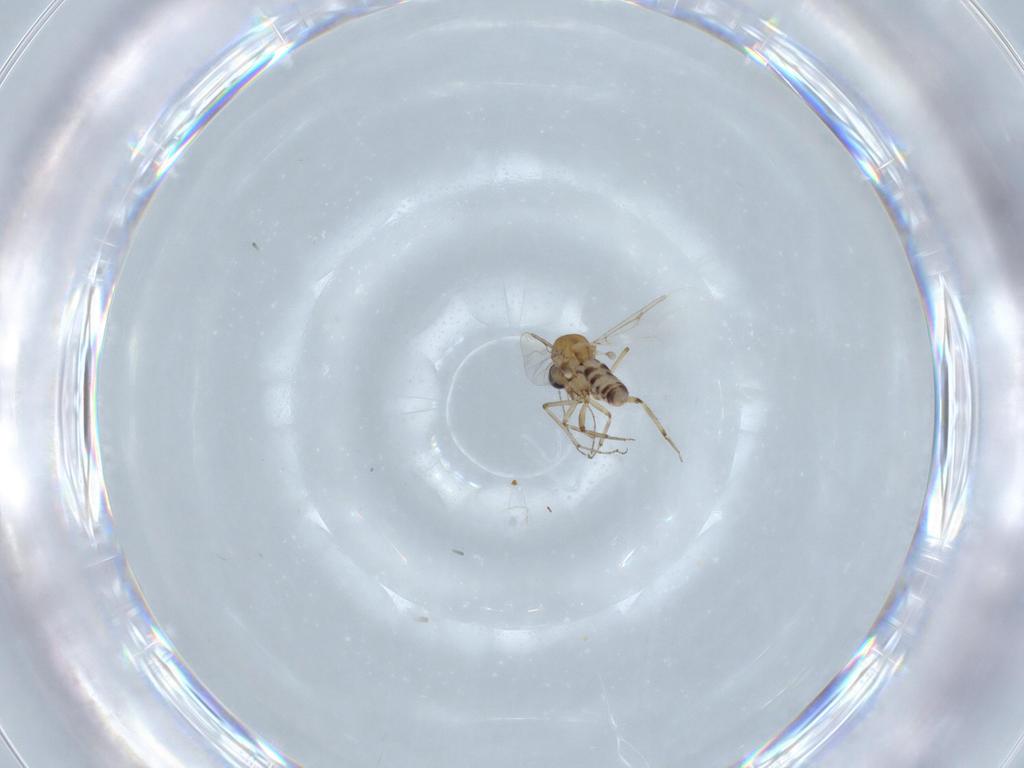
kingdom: Animalia
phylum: Arthropoda
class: Insecta
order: Diptera
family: Ceratopogonidae
